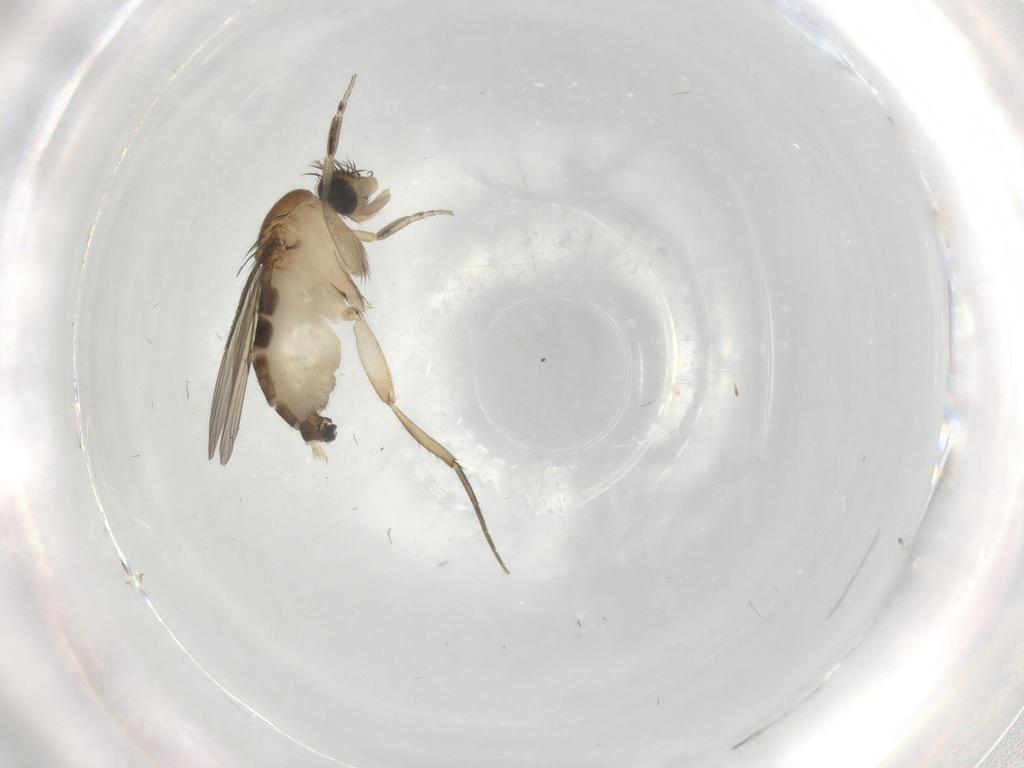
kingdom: Animalia
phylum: Arthropoda
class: Insecta
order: Diptera
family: Phoridae
